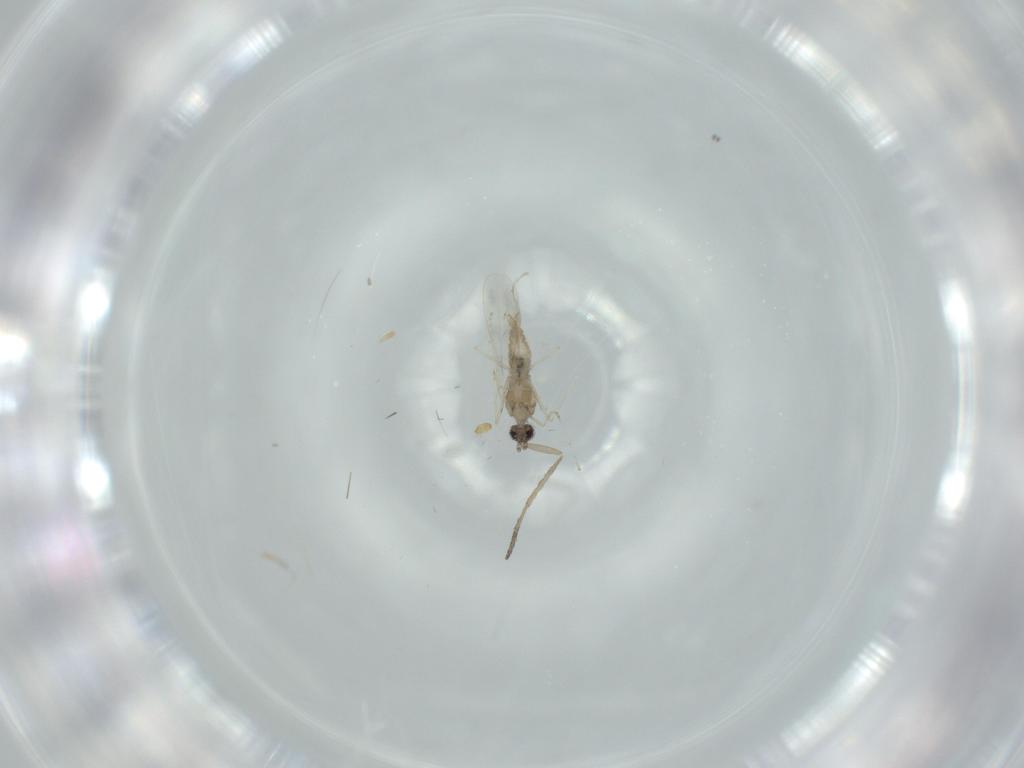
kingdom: Animalia
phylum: Arthropoda
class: Insecta
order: Diptera
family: Cecidomyiidae
